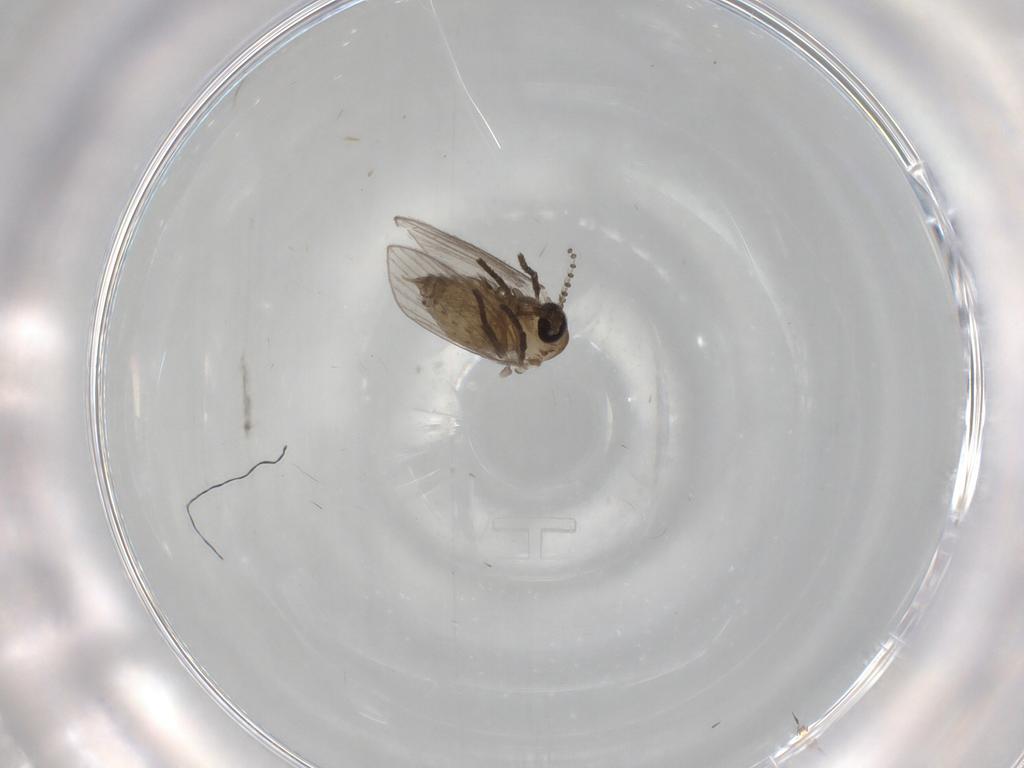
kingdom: Animalia
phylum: Arthropoda
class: Insecta
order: Diptera
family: Psychodidae
